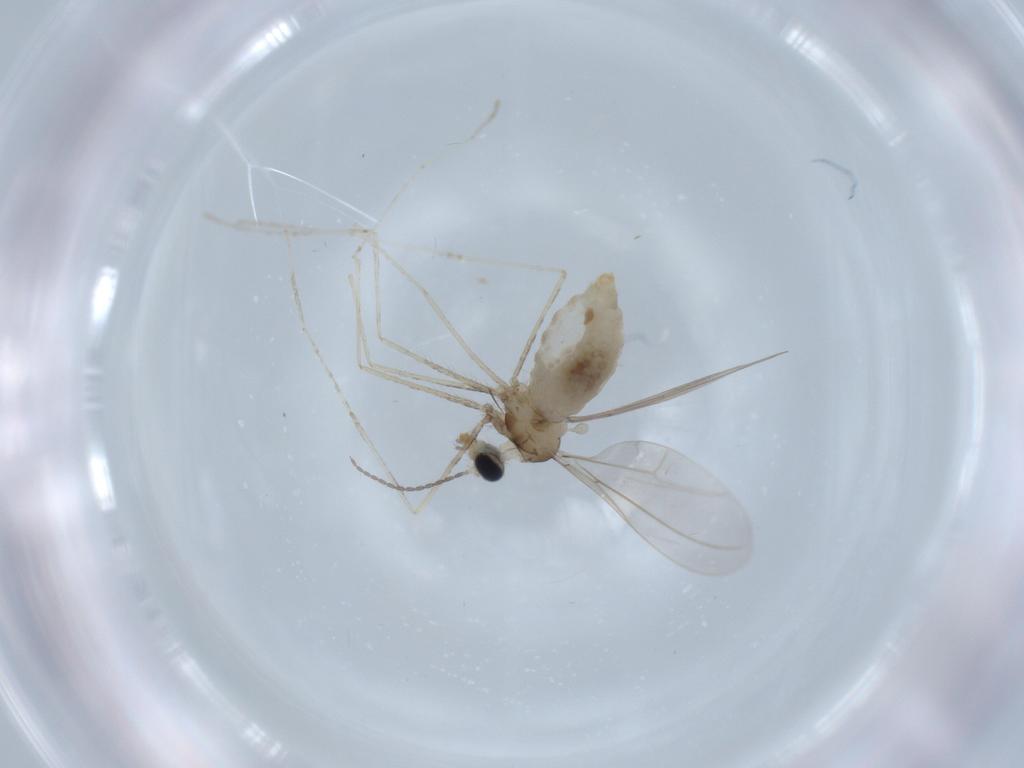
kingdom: Animalia
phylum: Arthropoda
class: Insecta
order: Diptera
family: Cecidomyiidae
